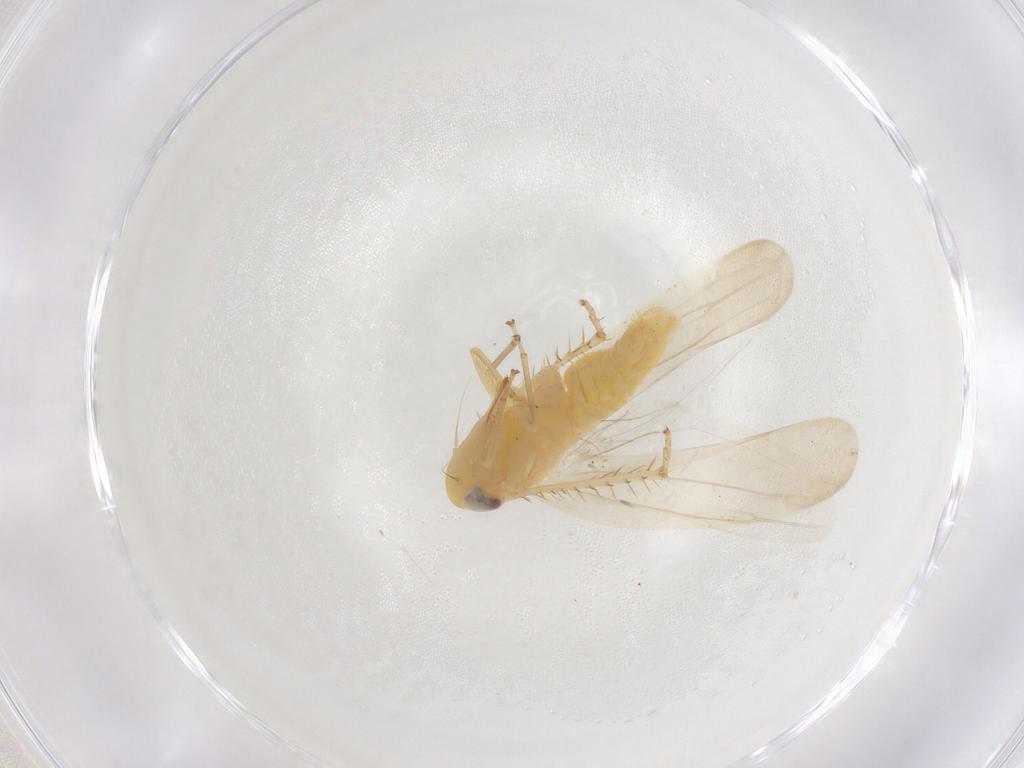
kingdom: Animalia
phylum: Arthropoda
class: Insecta
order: Hemiptera
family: Cicadellidae
